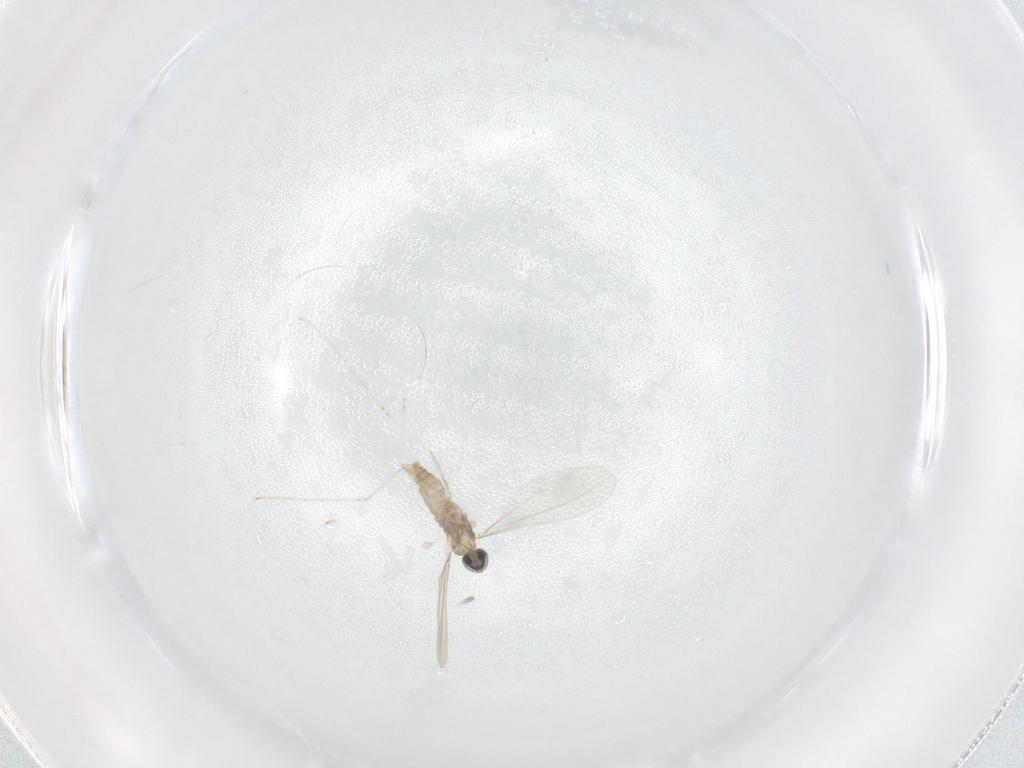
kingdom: Animalia
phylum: Arthropoda
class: Insecta
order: Diptera
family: Cecidomyiidae
